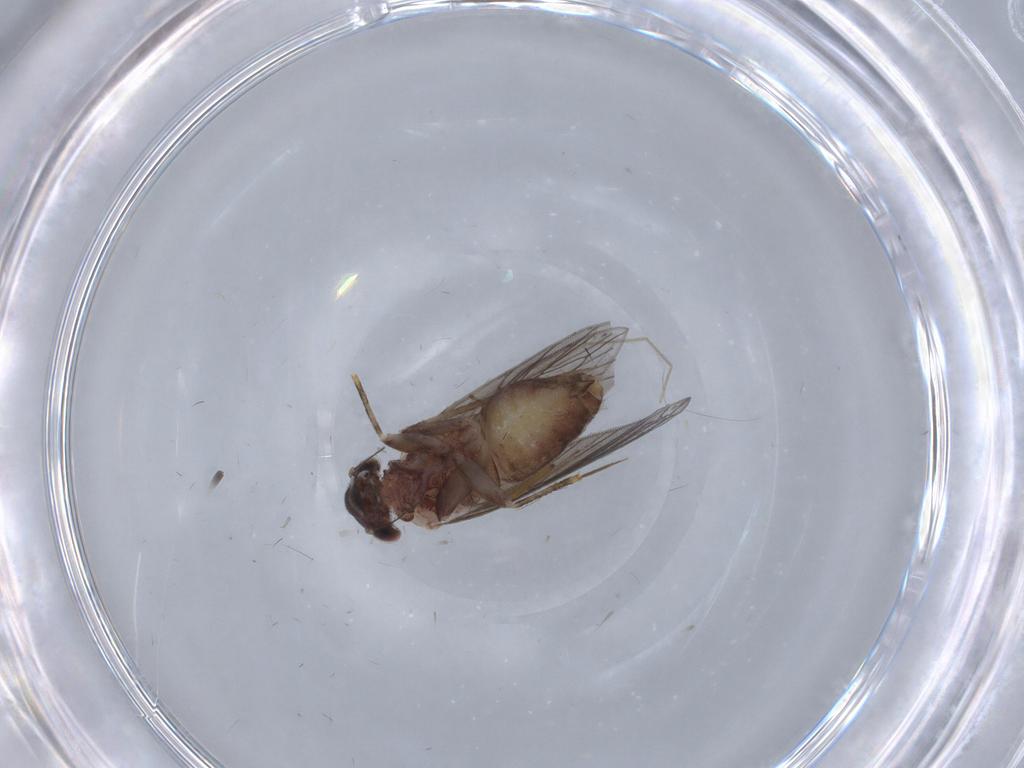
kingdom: Animalia
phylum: Arthropoda
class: Insecta
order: Psocodea
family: Lepidopsocidae
